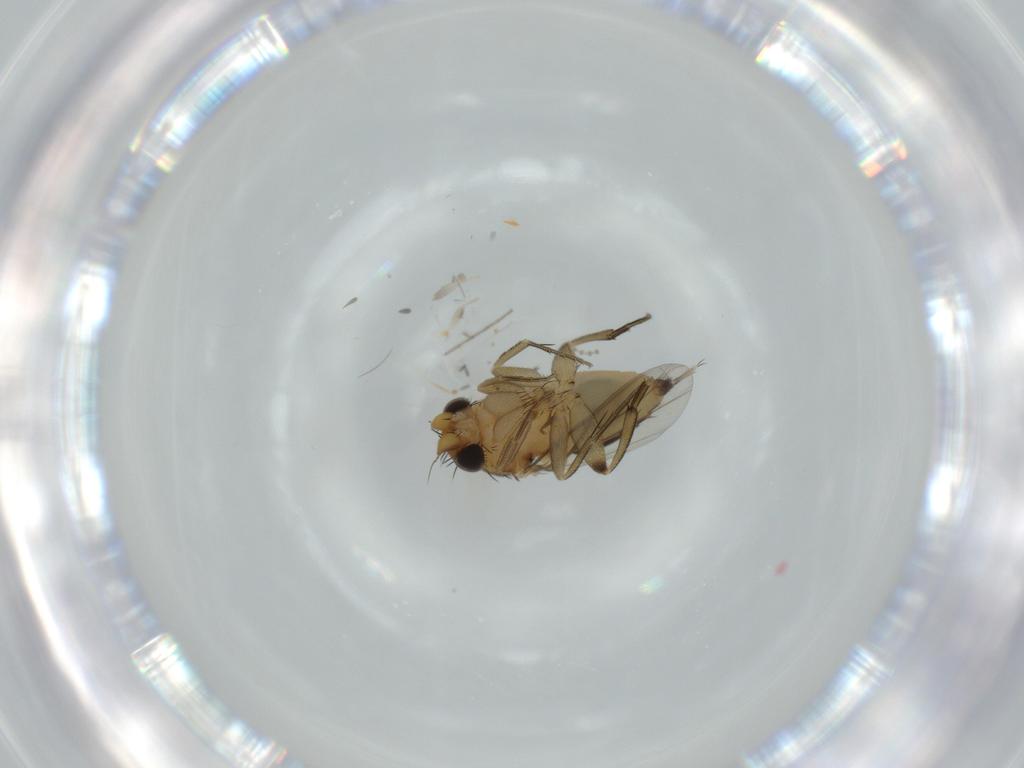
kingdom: Animalia
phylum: Arthropoda
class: Insecta
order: Diptera
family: Chironomidae
